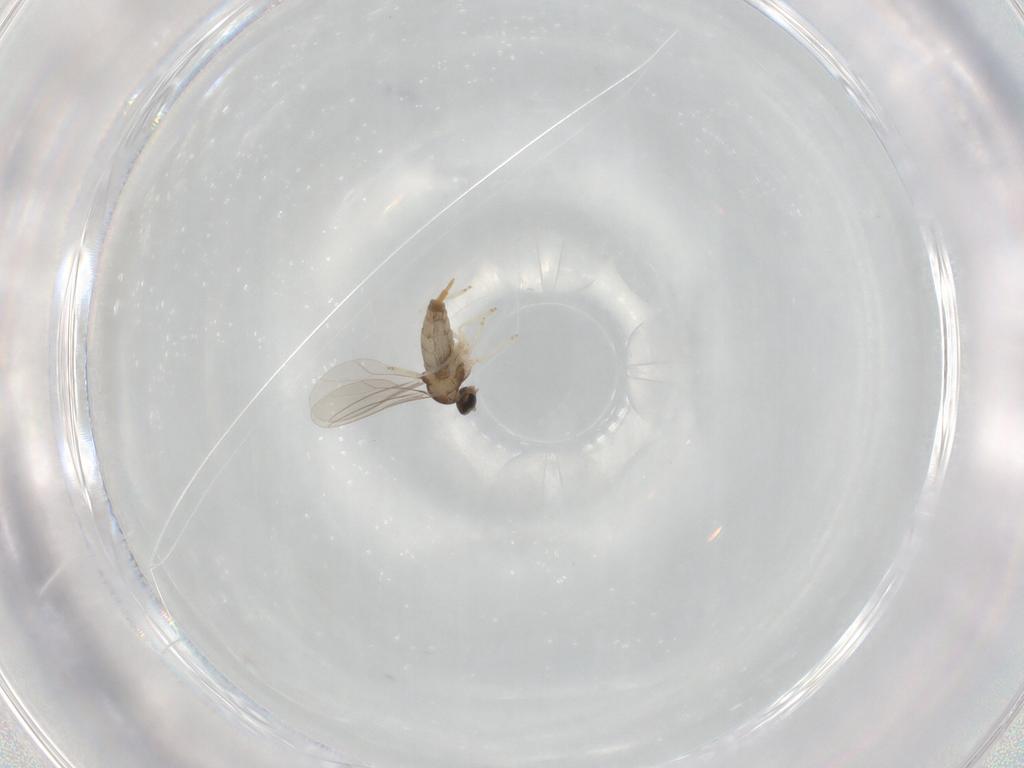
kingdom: Animalia
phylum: Arthropoda
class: Insecta
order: Diptera
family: Cecidomyiidae
